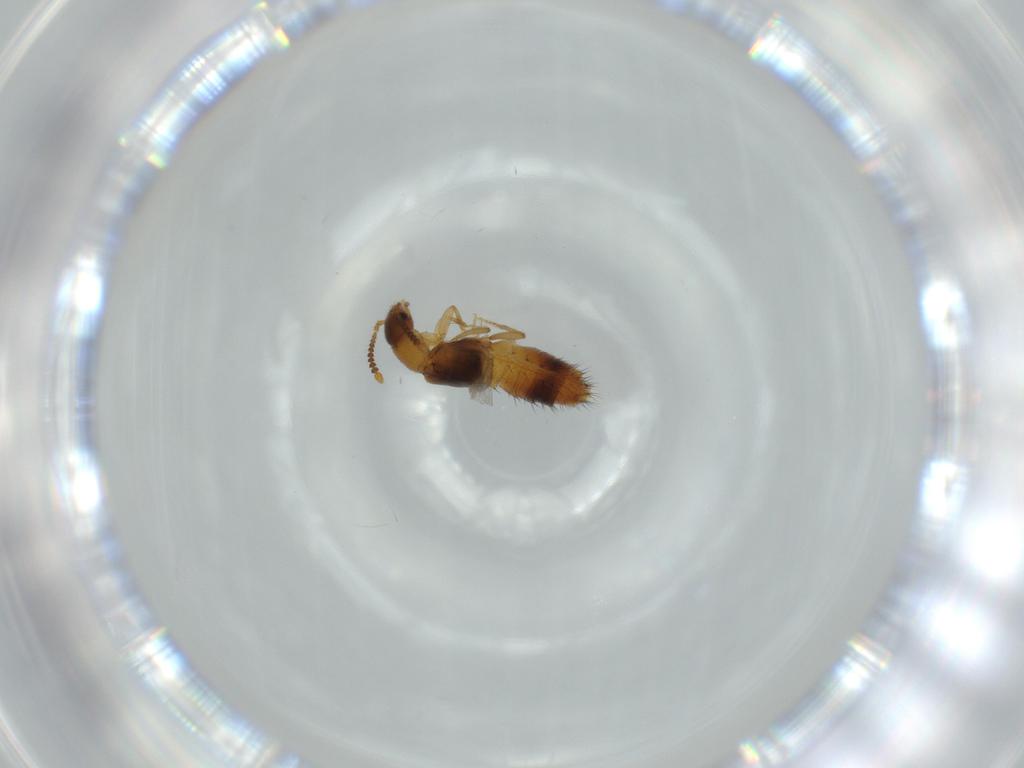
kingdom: Animalia
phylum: Arthropoda
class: Insecta
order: Coleoptera
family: Staphylinidae
